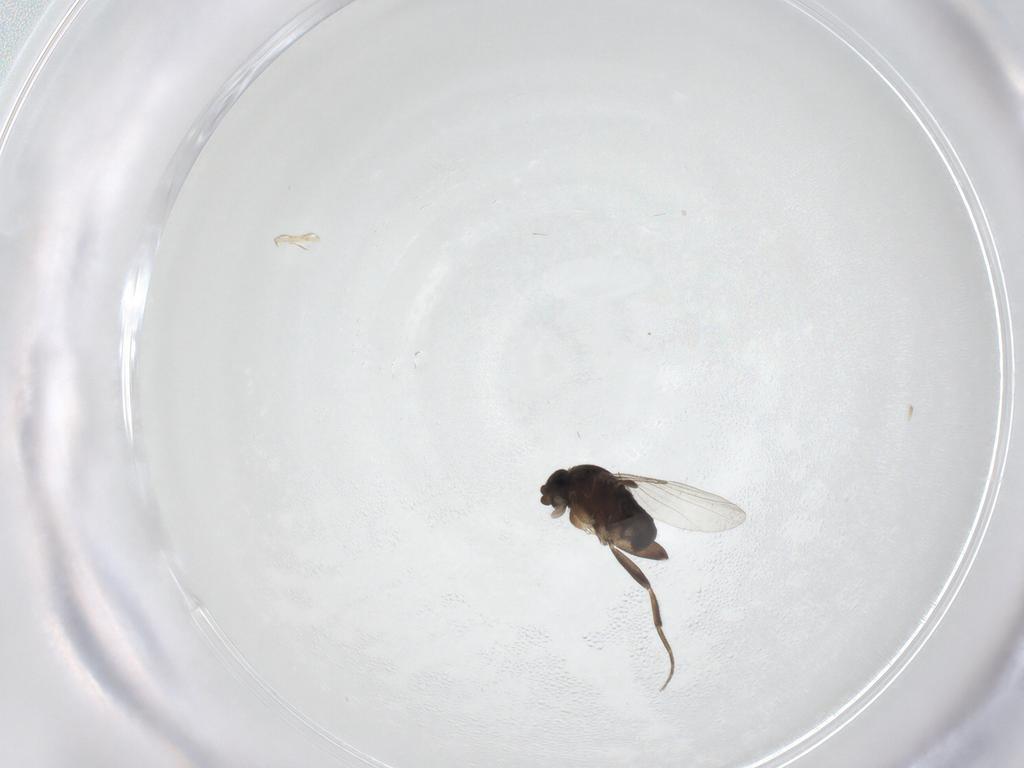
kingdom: Animalia
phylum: Arthropoda
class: Insecta
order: Diptera
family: Phoridae
